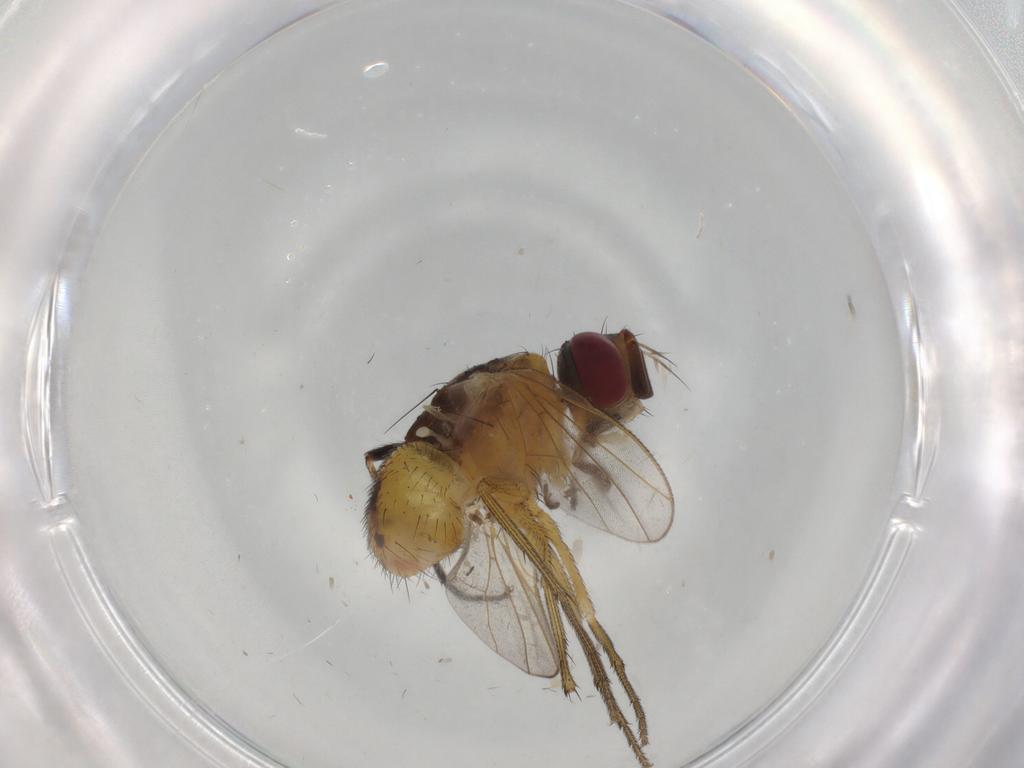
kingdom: Animalia
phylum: Arthropoda
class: Insecta
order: Diptera
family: Muscidae
